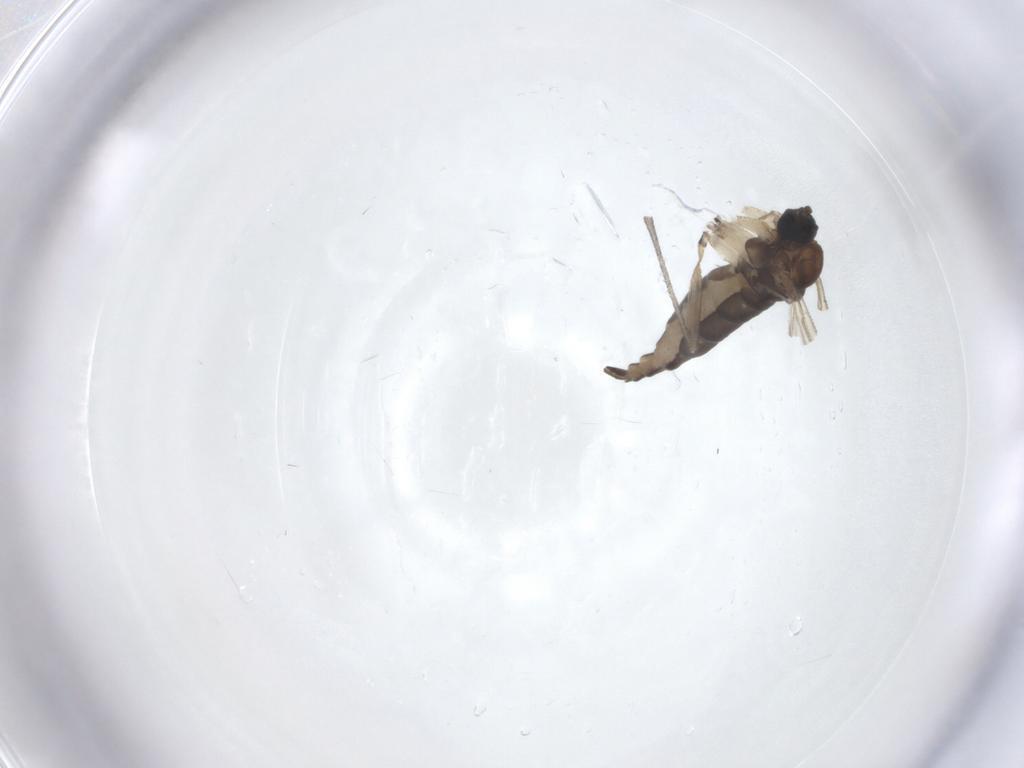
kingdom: Animalia
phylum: Arthropoda
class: Insecta
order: Diptera
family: Sciaridae
